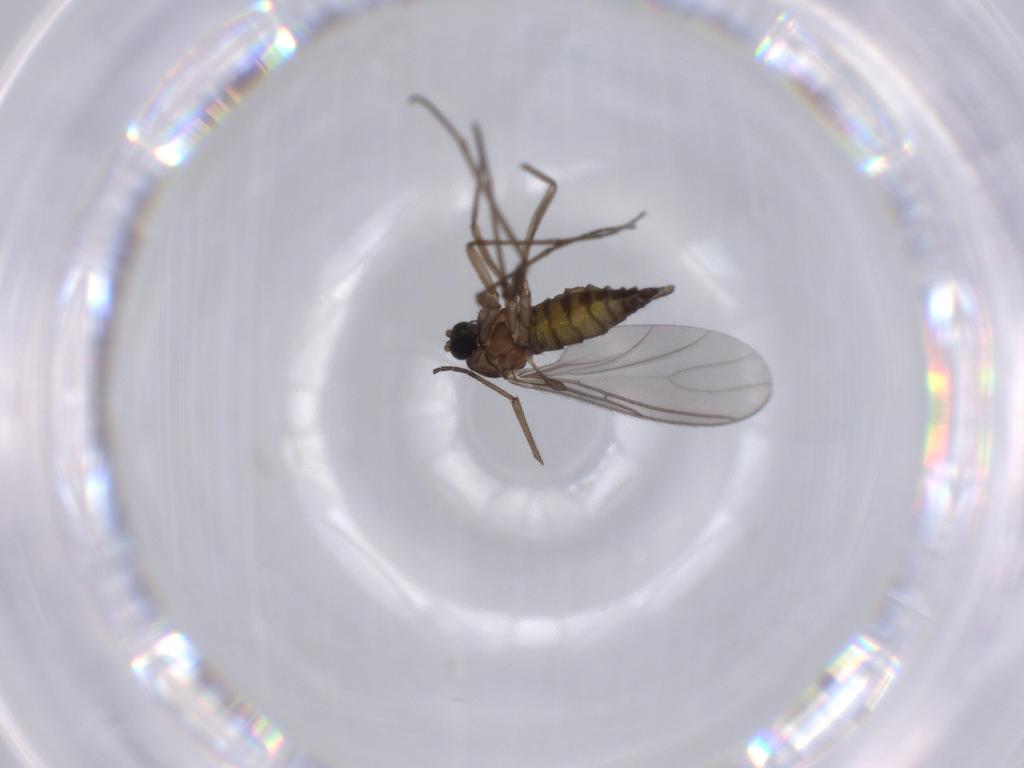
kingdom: Animalia
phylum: Arthropoda
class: Insecta
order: Diptera
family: Sciaridae
